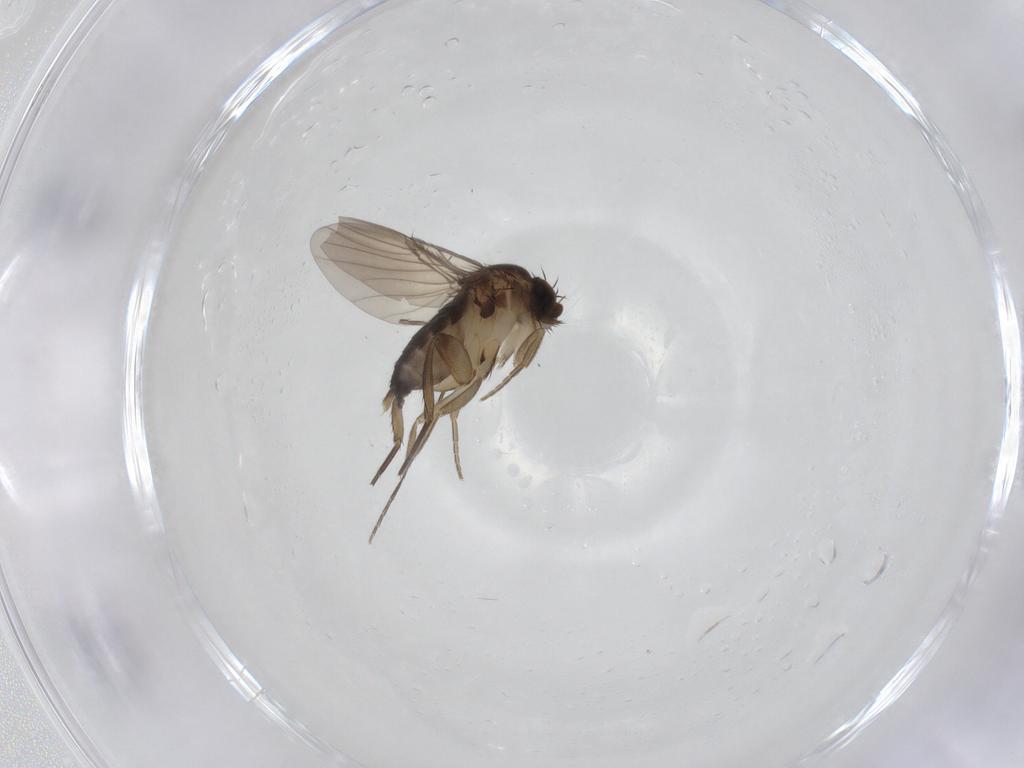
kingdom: Animalia
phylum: Arthropoda
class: Insecta
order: Diptera
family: Phoridae
